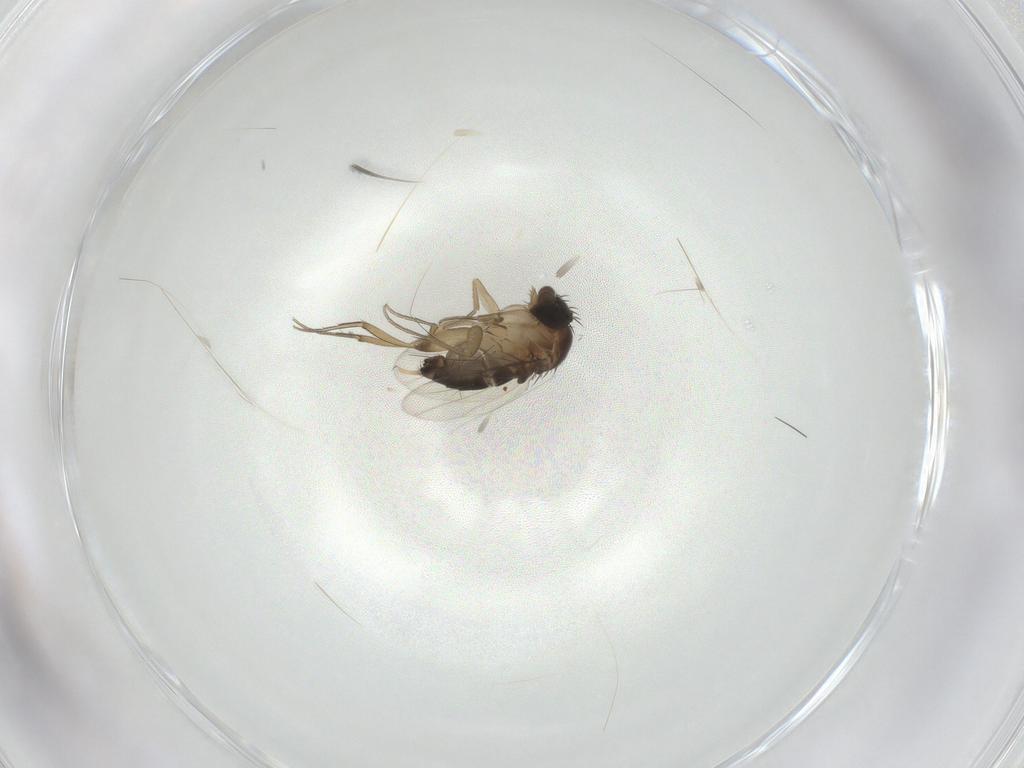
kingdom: Animalia
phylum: Arthropoda
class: Insecta
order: Diptera
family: Phoridae
